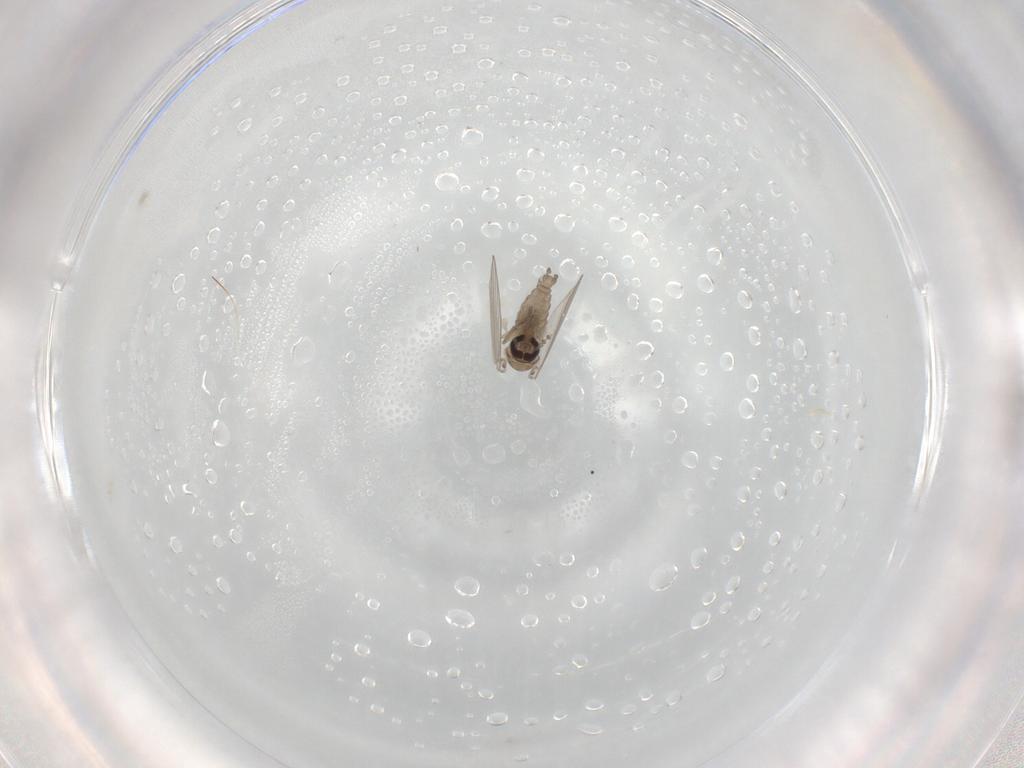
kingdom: Animalia
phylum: Arthropoda
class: Insecta
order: Diptera
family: Psychodidae
